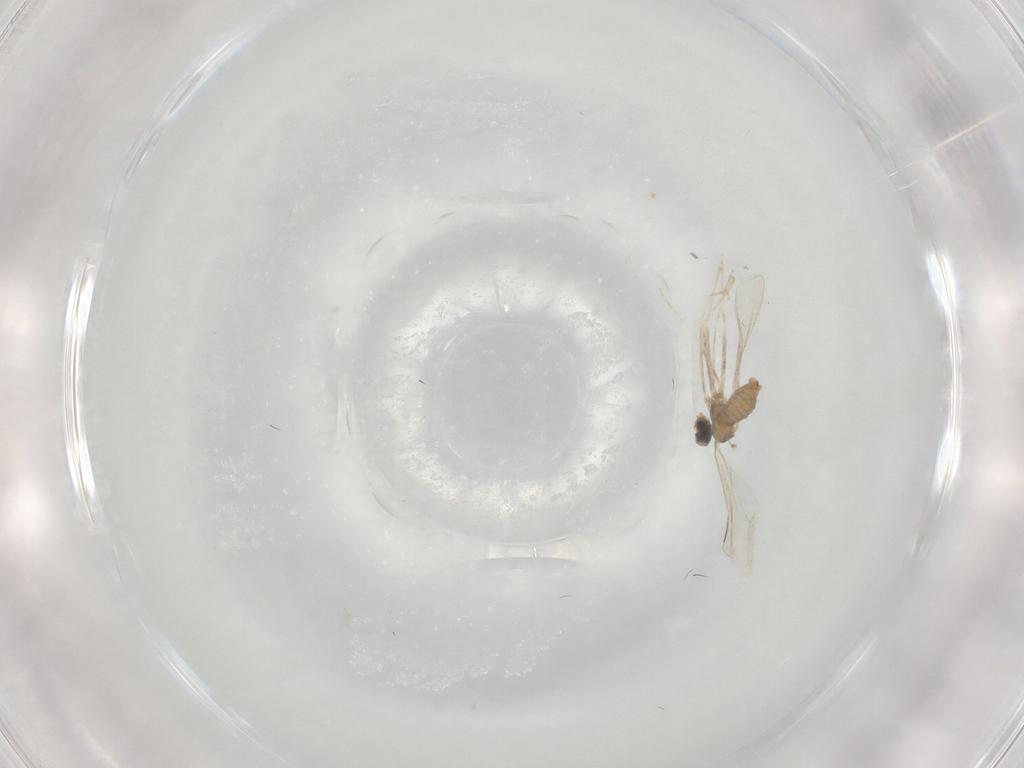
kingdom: Animalia
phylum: Arthropoda
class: Insecta
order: Diptera
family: Cecidomyiidae
